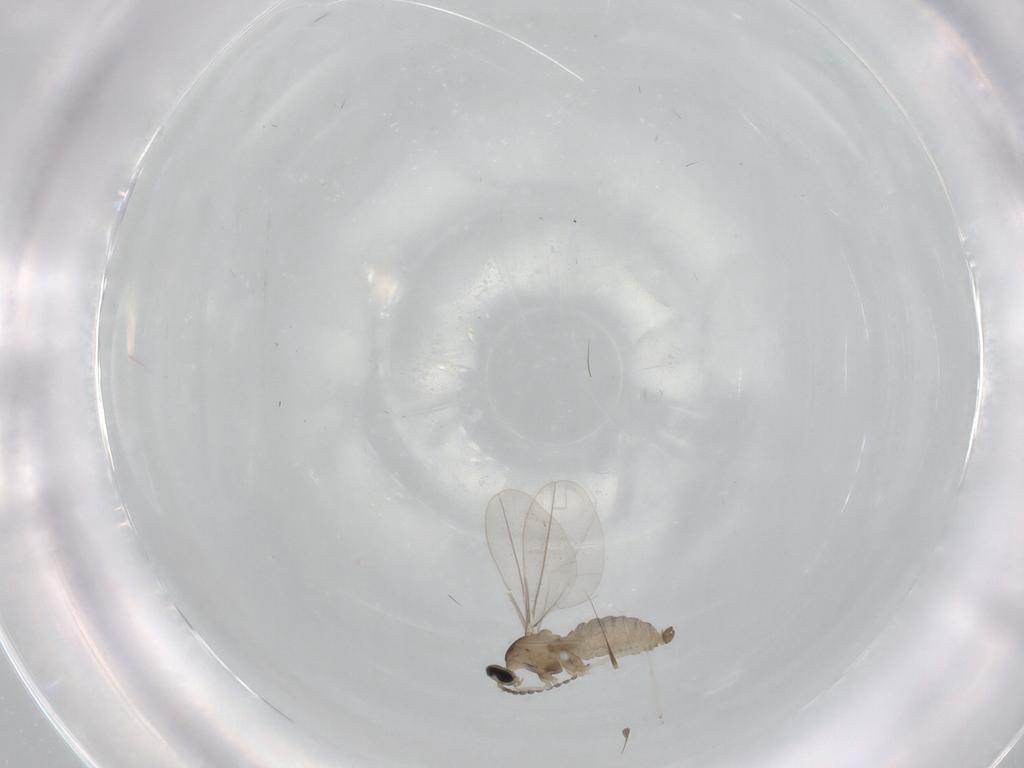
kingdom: Animalia
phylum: Arthropoda
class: Insecta
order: Diptera
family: Cecidomyiidae
